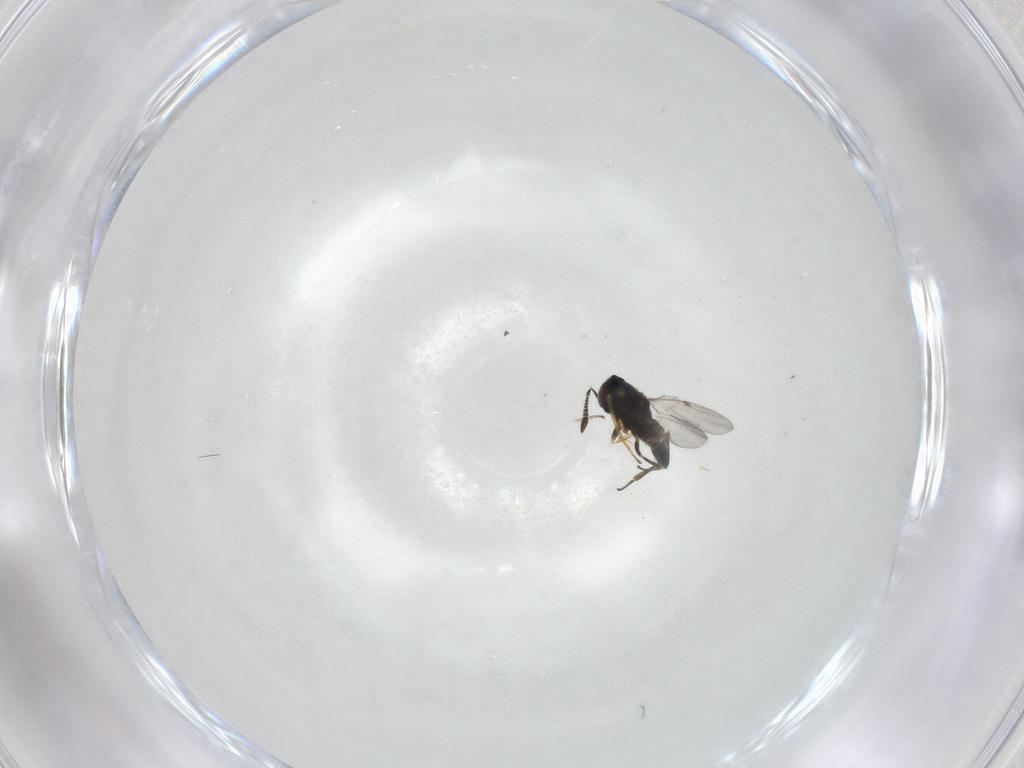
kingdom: Animalia
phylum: Arthropoda
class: Insecta
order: Hymenoptera
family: Encyrtidae
